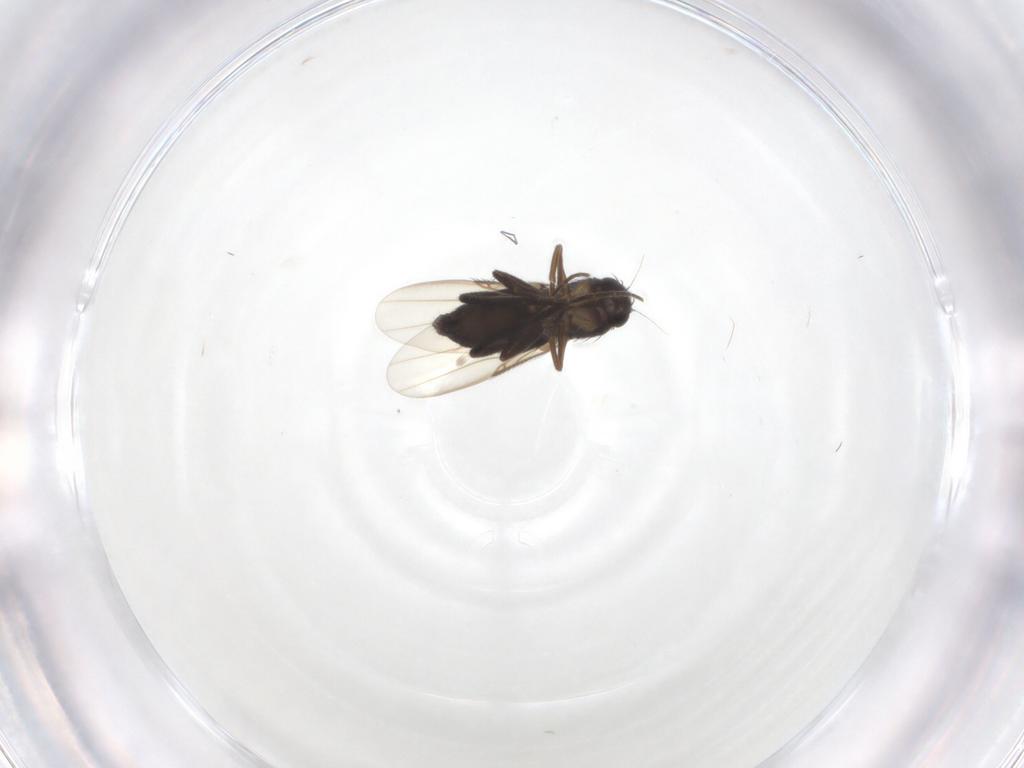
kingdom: Animalia
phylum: Arthropoda
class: Insecta
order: Diptera
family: Phoridae
